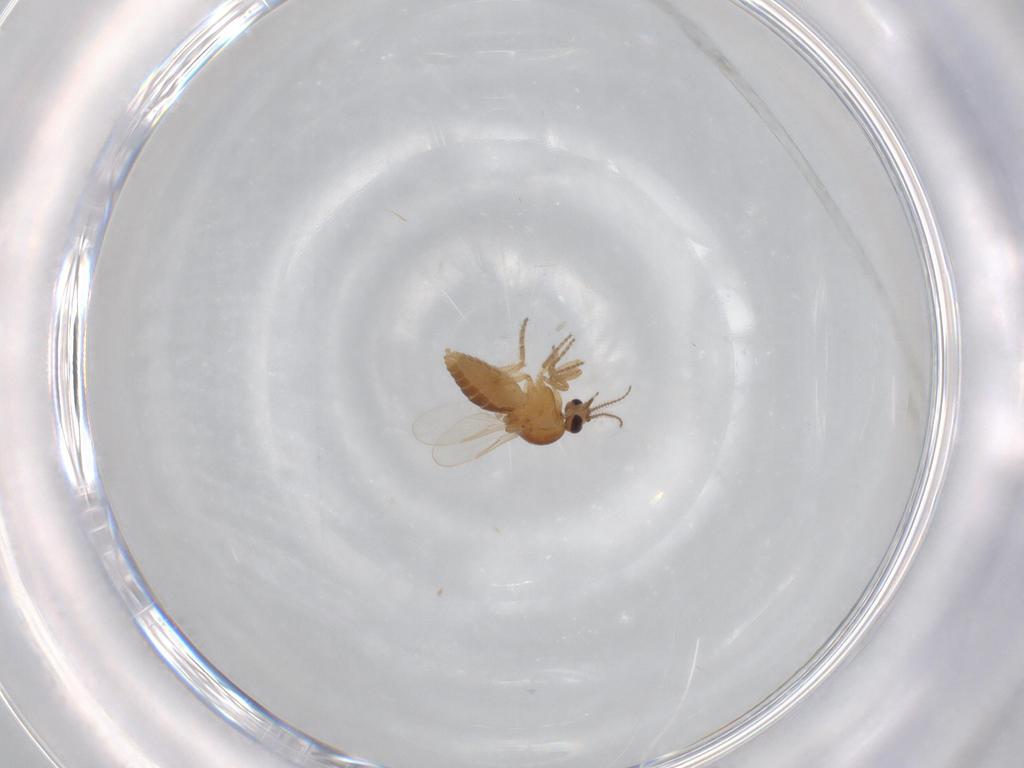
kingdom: Animalia
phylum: Arthropoda
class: Insecta
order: Diptera
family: Ceratopogonidae
